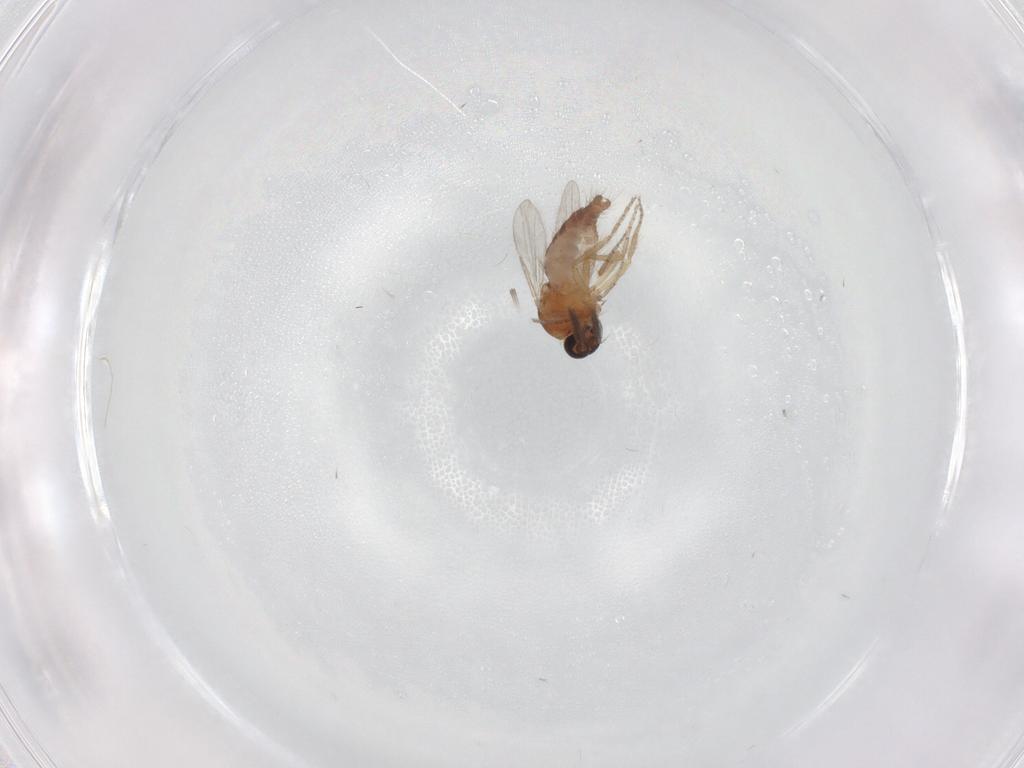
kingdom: Animalia
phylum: Arthropoda
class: Insecta
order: Diptera
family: Ceratopogonidae
